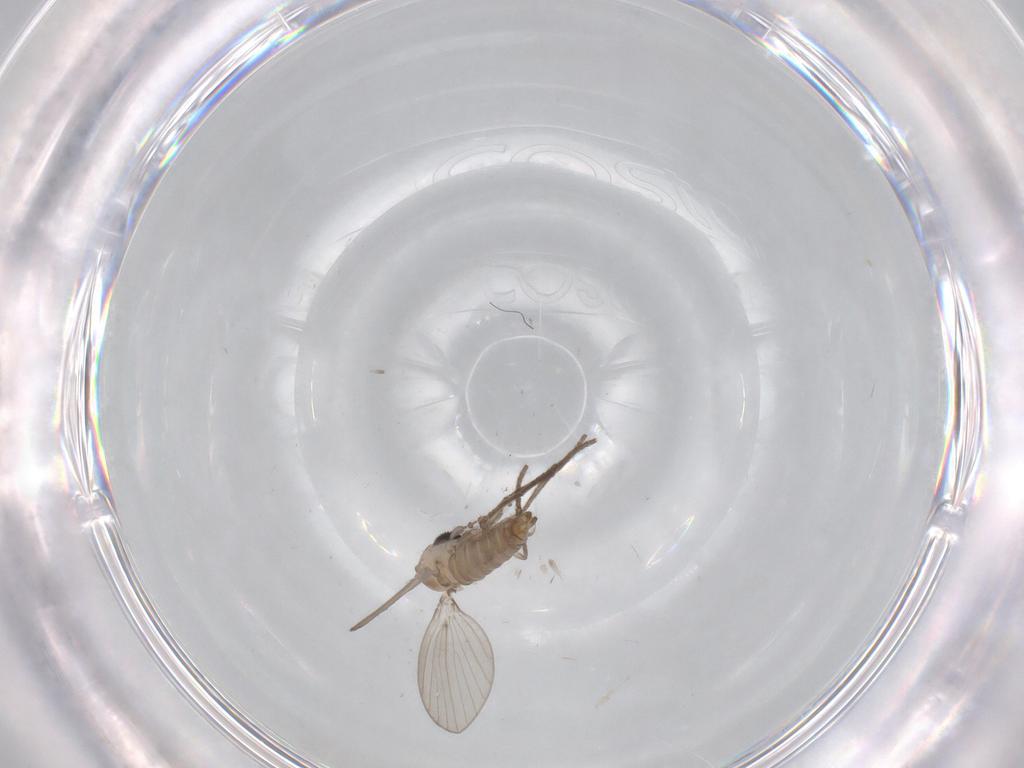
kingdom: Animalia
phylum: Arthropoda
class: Insecta
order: Diptera
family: Psychodidae
